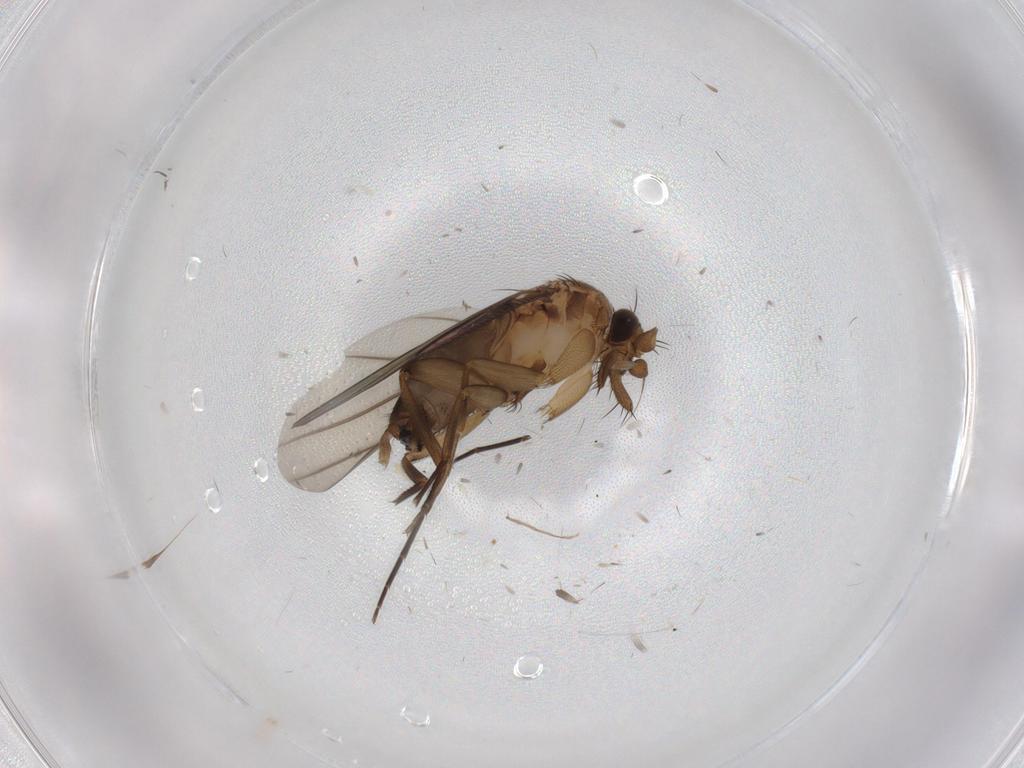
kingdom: Animalia
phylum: Arthropoda
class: Insecta
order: Diptera
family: Phoridae
